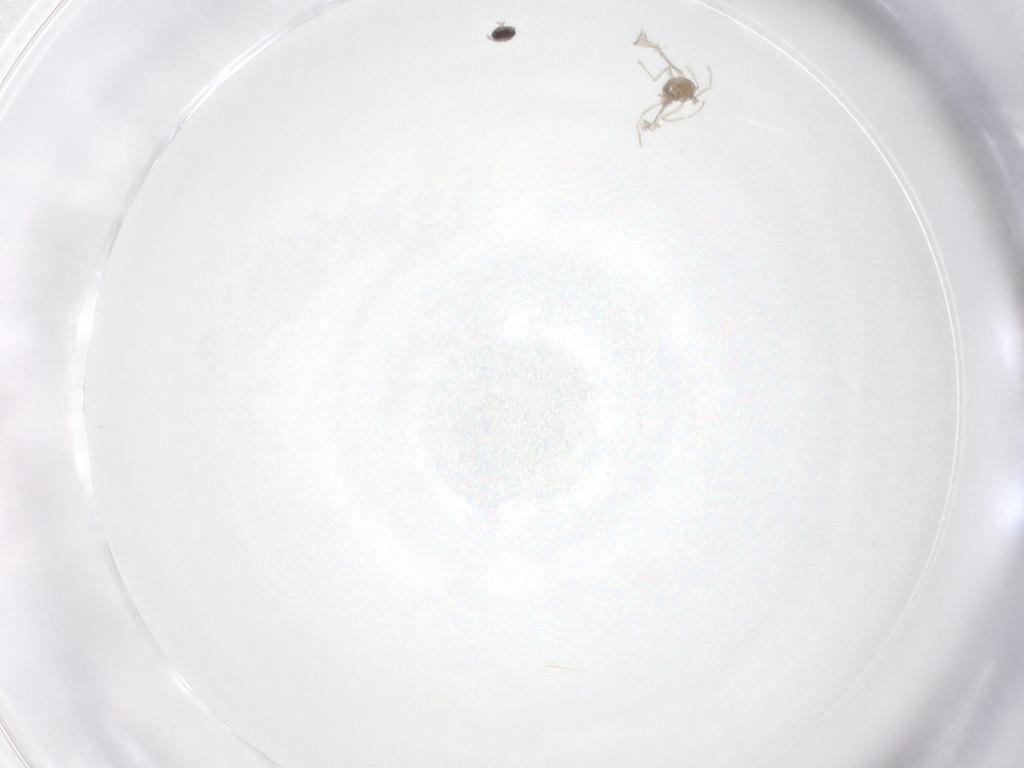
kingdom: Animalia
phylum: Arthropoda
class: Insecta
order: Diptera
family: Cecidomyiidae
